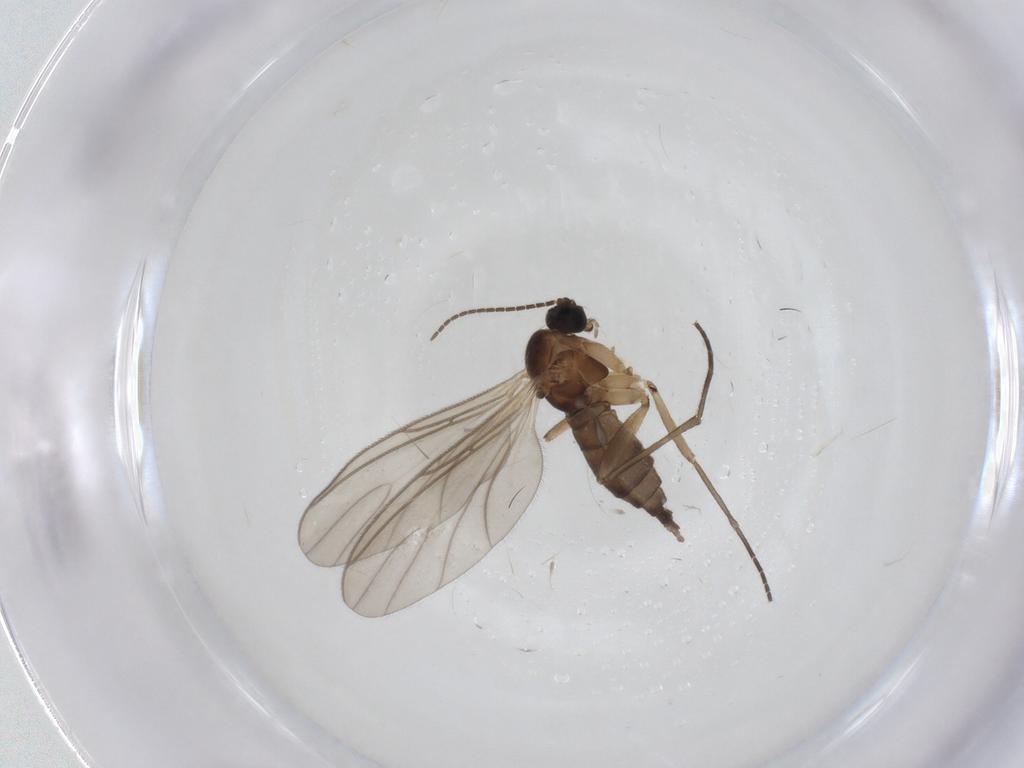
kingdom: Animalia
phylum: Arthropoda
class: Insecta
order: Diptera
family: Sciaridae
